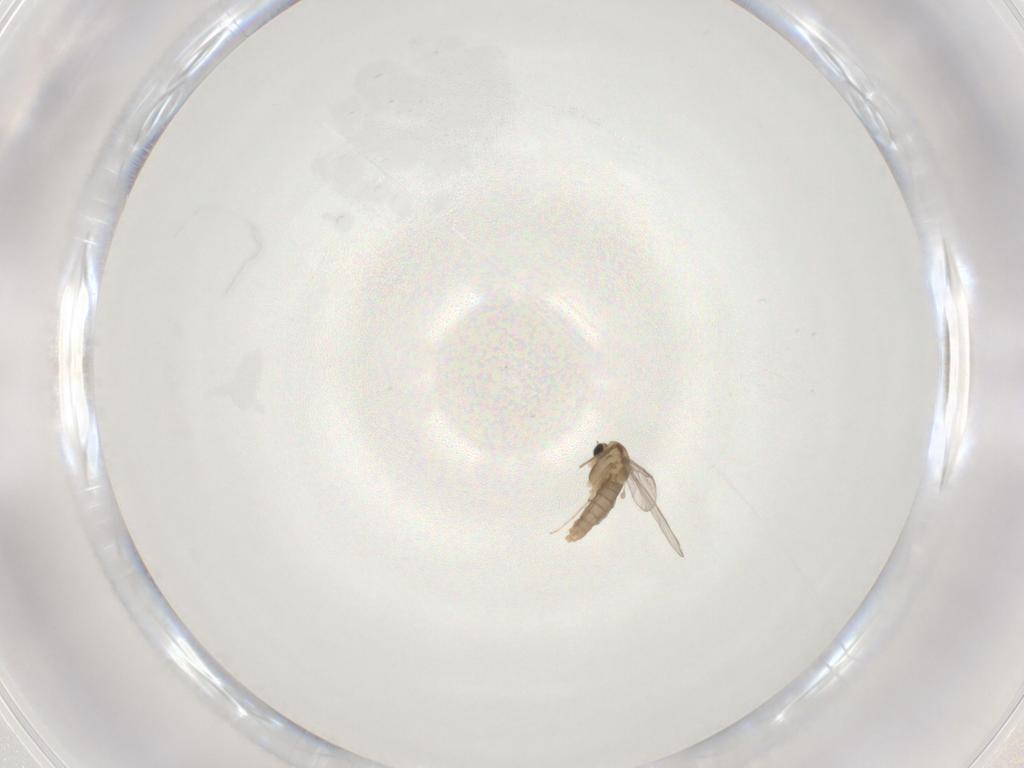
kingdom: Animalia
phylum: Arthropoda
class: Insecta
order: Diptera
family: Chironomidae
